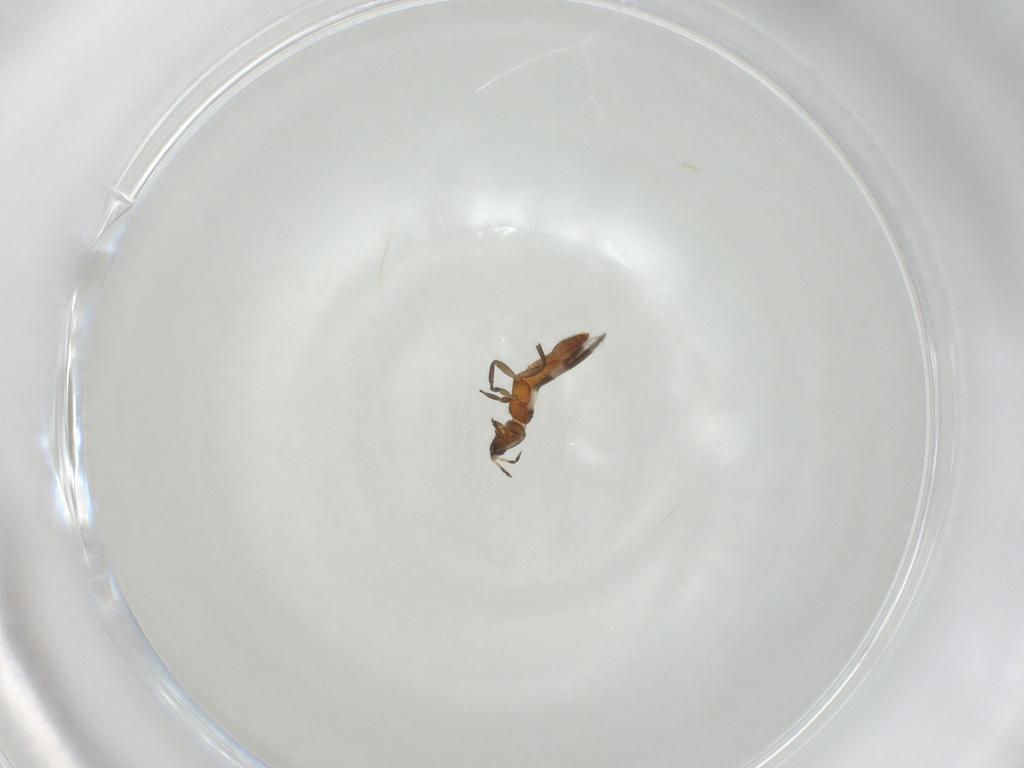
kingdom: Animalia
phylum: Arthropoda
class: Insecta
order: Thysanoptera
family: Aeolothripidae
